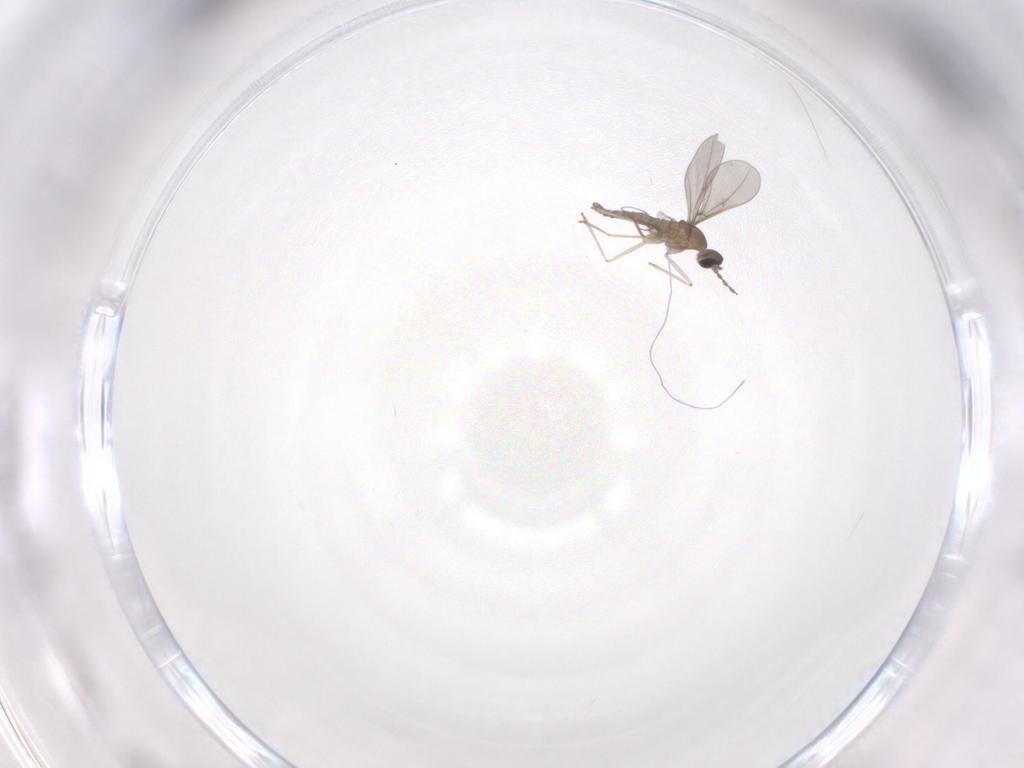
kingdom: Animalia
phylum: Arthropoda
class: Insecta
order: Diptera
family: Cecidomyiidae
